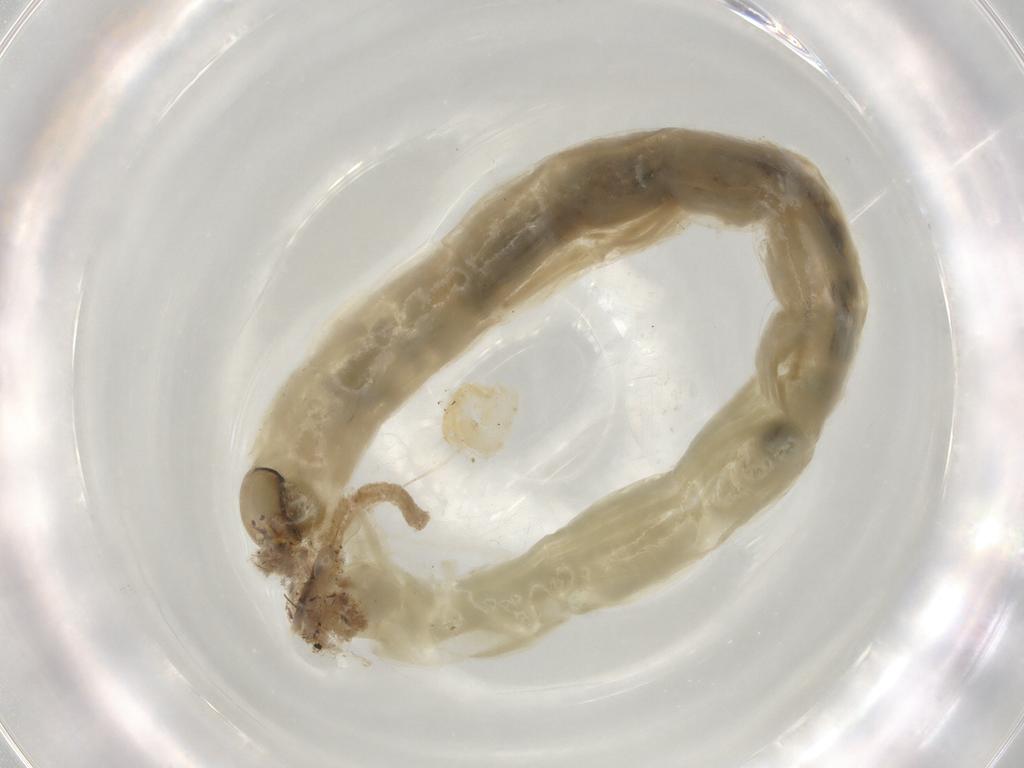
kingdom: Animalia
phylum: Arthropoda
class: Insecta
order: Diptera
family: Chironomidae
